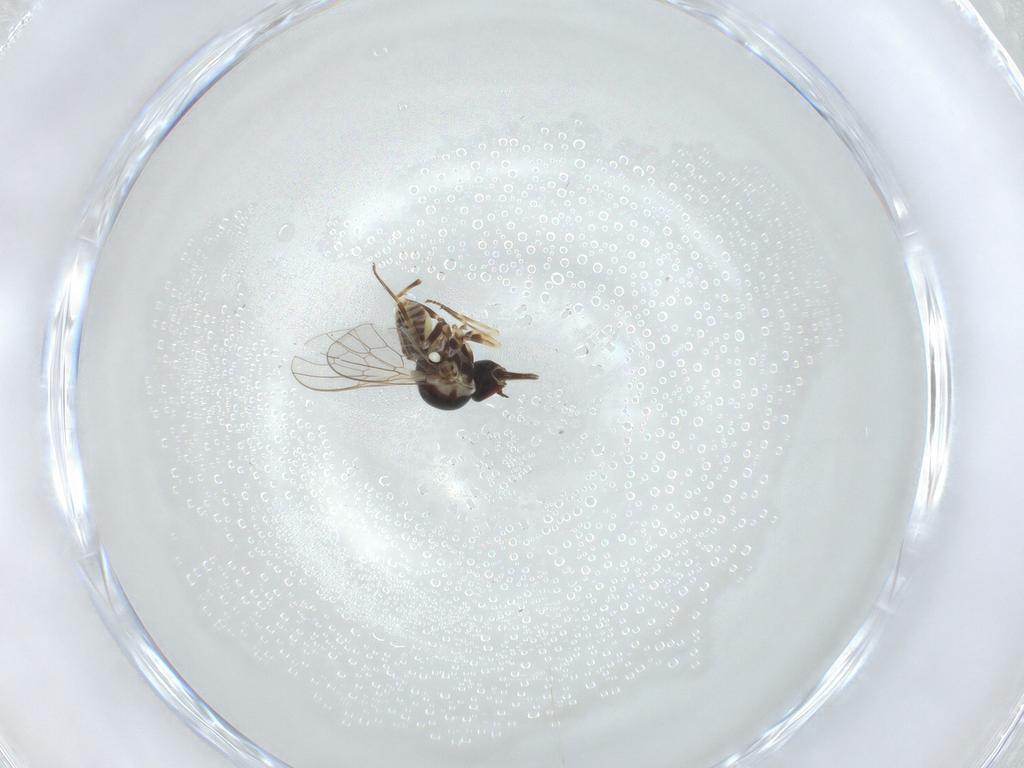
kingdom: Animalia
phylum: Arthropoda
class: Insecta
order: Diptera
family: Bombyliidae
